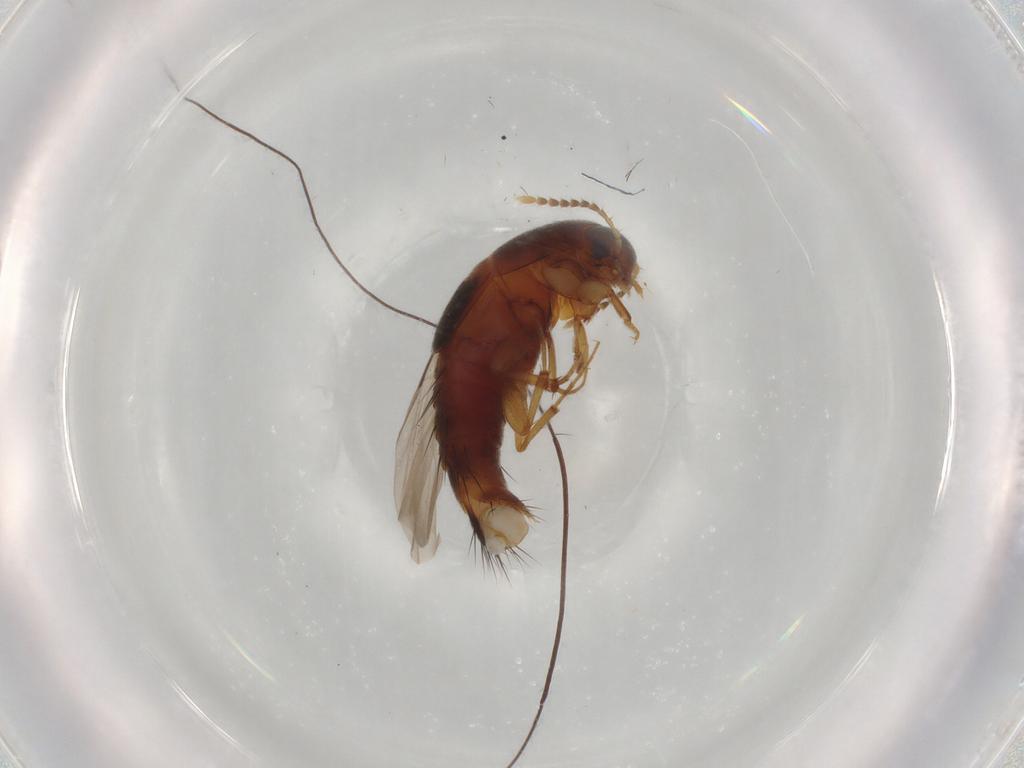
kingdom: Animalia
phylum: Arthropoda
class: Insecta
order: Coleoptera
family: Staphylinidae
